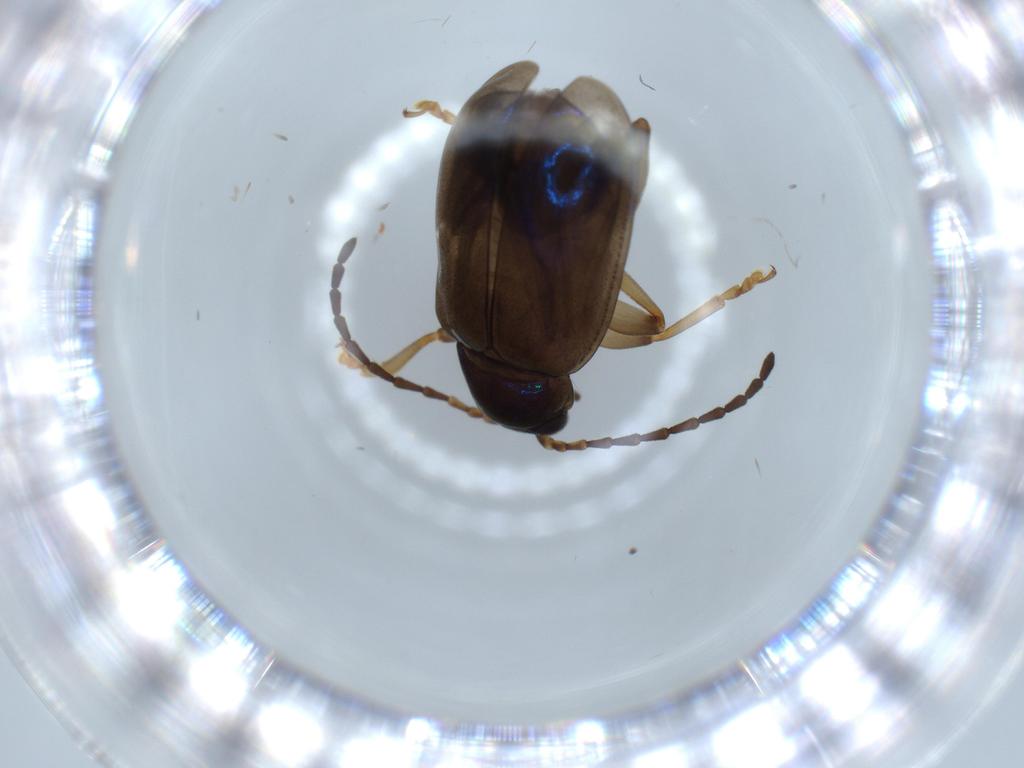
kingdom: Animalia
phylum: Arthropoda
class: Insecta
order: Coleoptera
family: Chrysomelidae
